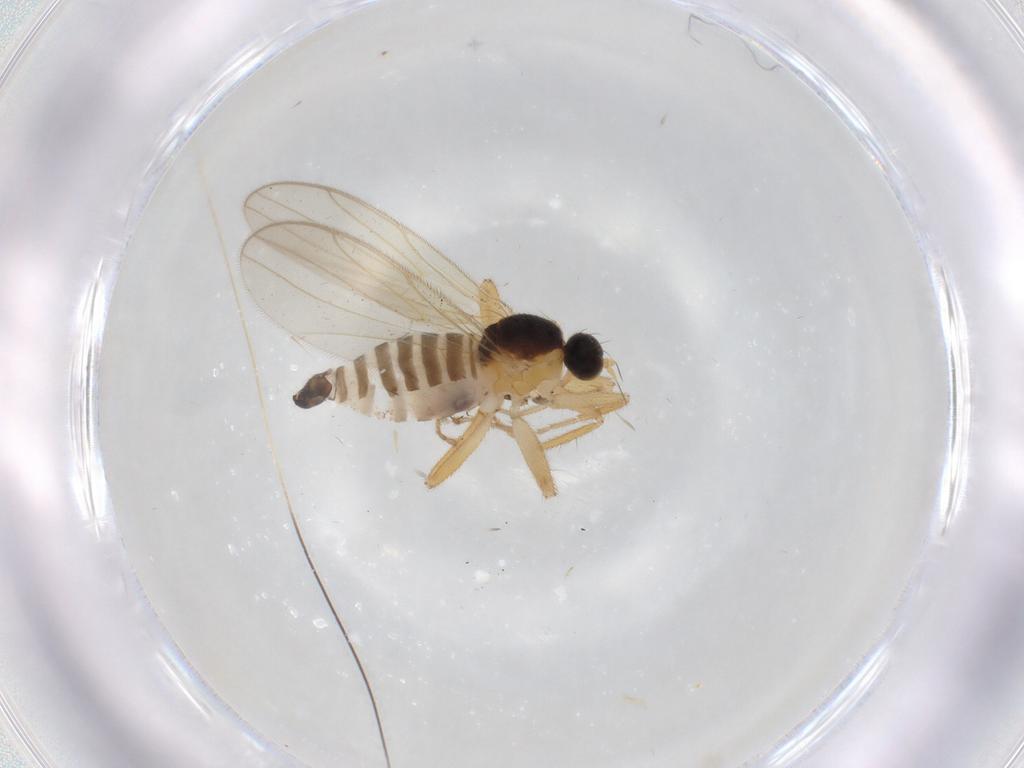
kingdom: Animalia
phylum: Arthropoda
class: Insecta
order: Diptera
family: Hybotidae
